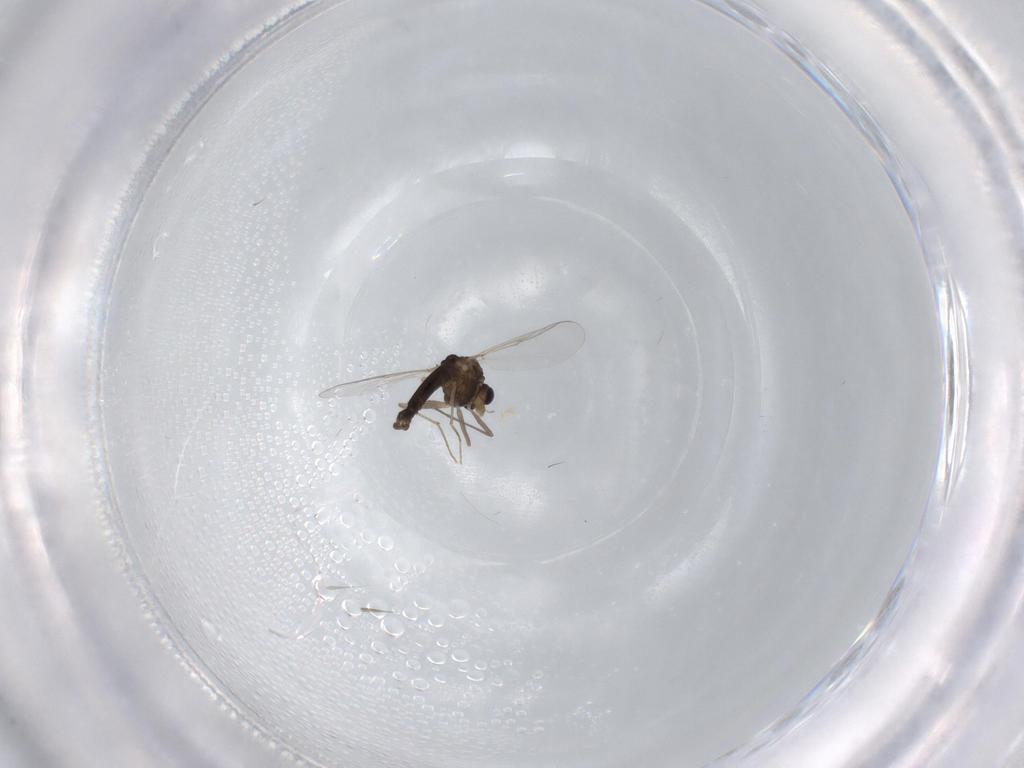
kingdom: Animalia
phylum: Arthropoda
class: Insecta
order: Diptera
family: Chironomidae
